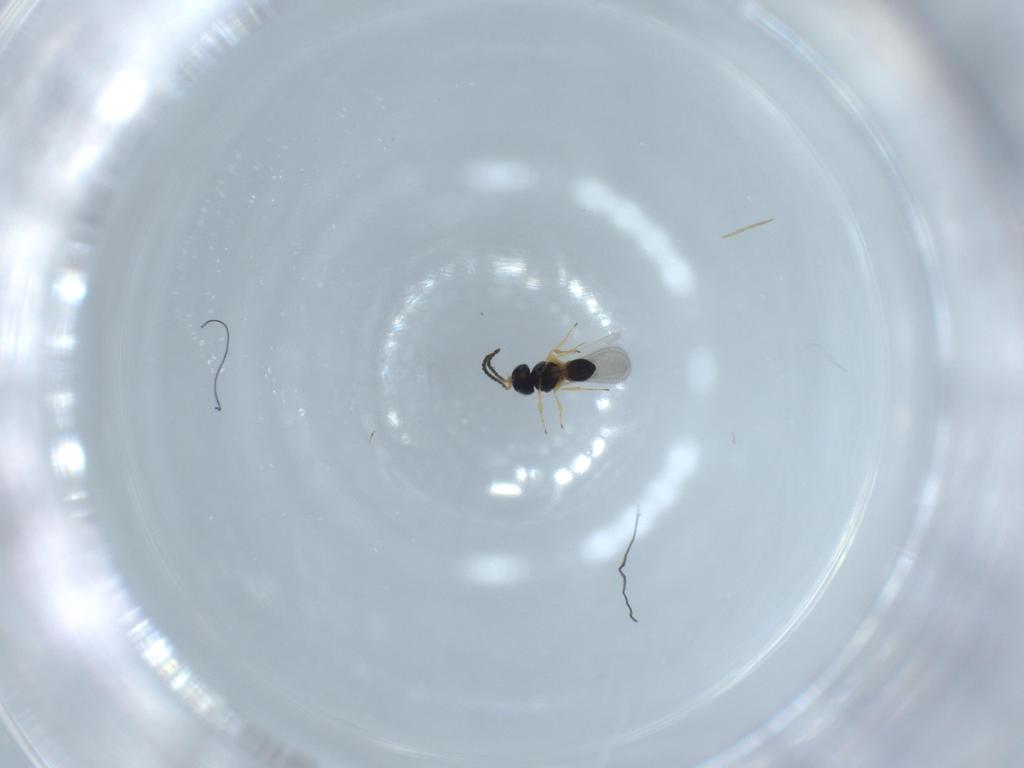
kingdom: Animalia
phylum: Arthropoda
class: Insecta
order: Hymenoptera
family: Scelionidae
